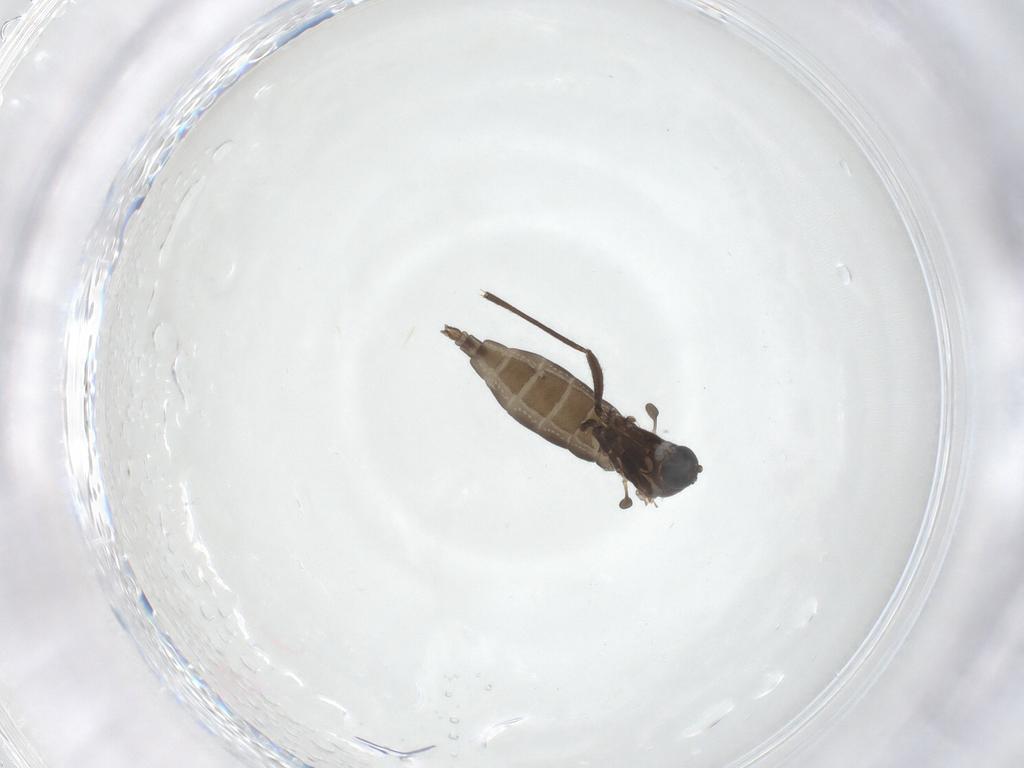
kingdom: Animalia
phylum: Arthropoda
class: Insecta
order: Diptera
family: Sciaridae
